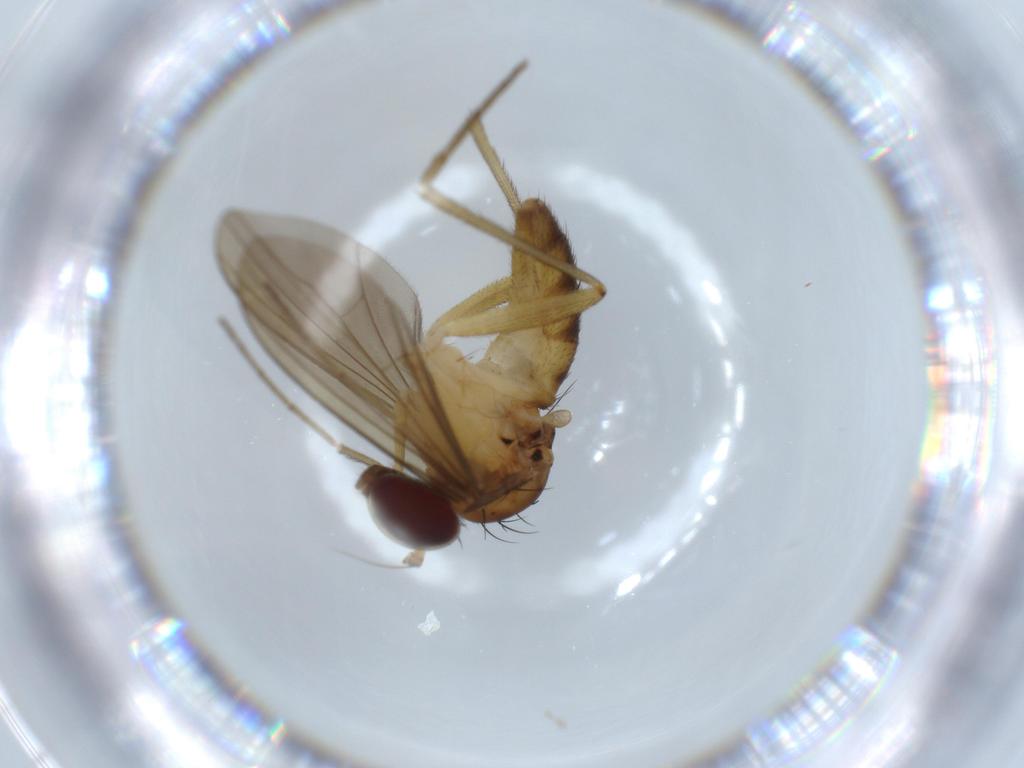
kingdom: Animalia
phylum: Arthropoda
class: Insecta
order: Diptera
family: Dolichopodidae
